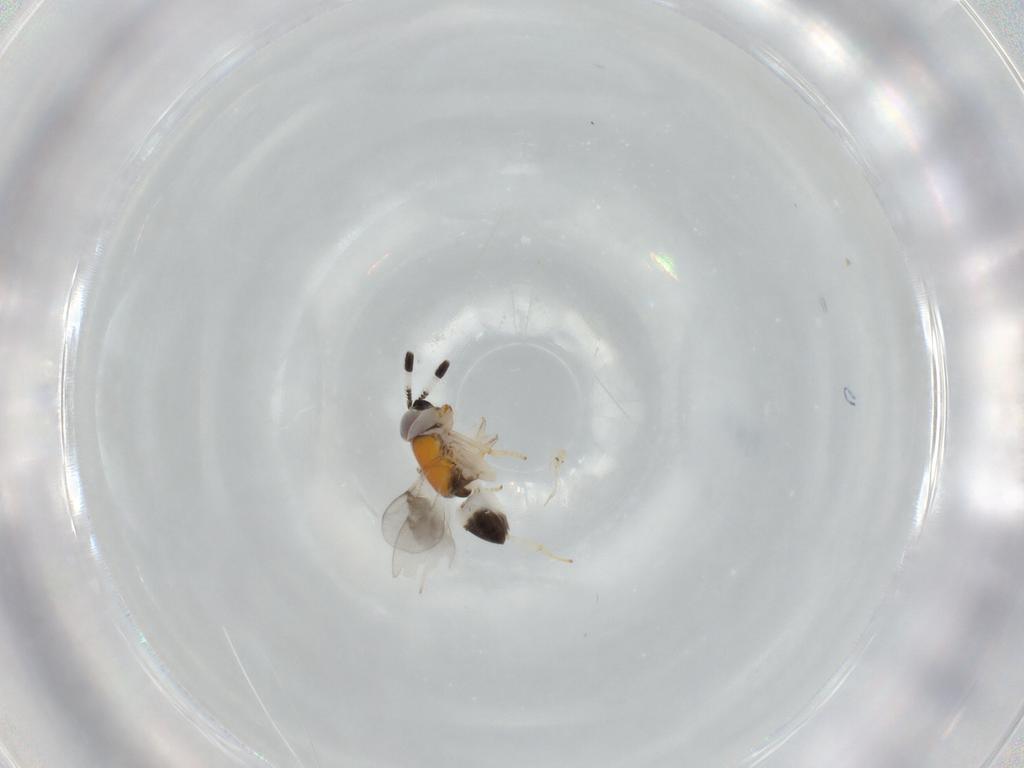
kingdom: Animalia
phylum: Arthropoda
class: Insecta
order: Hymenoptera
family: Encyrtidae
